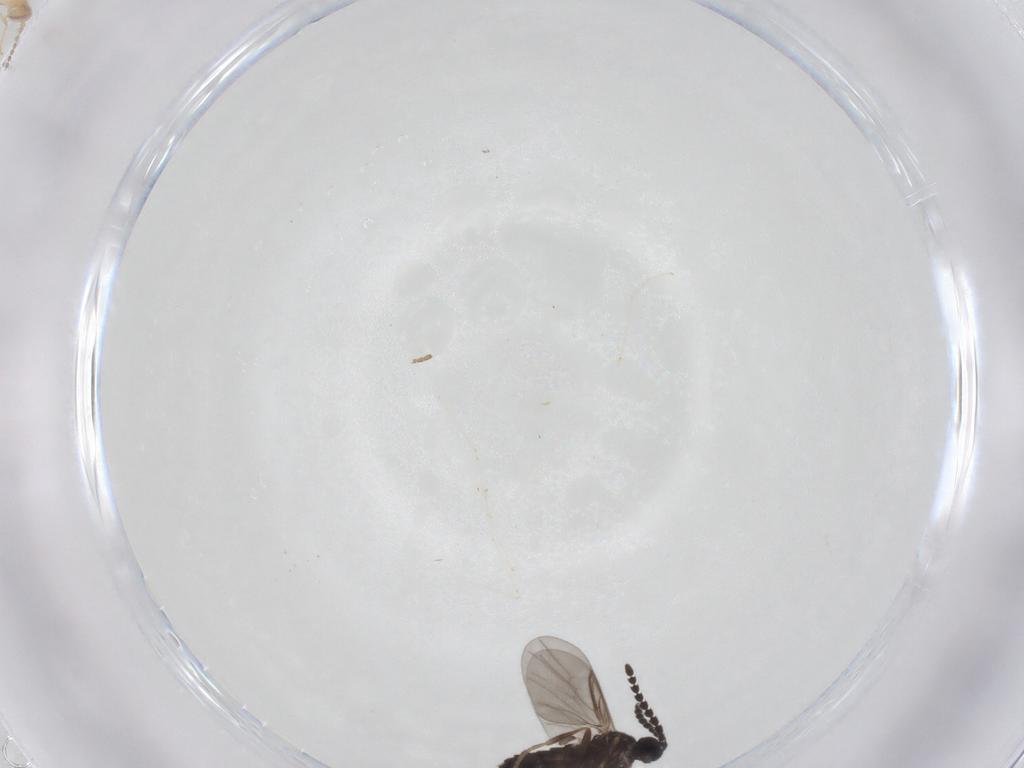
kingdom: Animalia
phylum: Arthropoda
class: Insecta
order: Diptera
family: Scatopsidae
